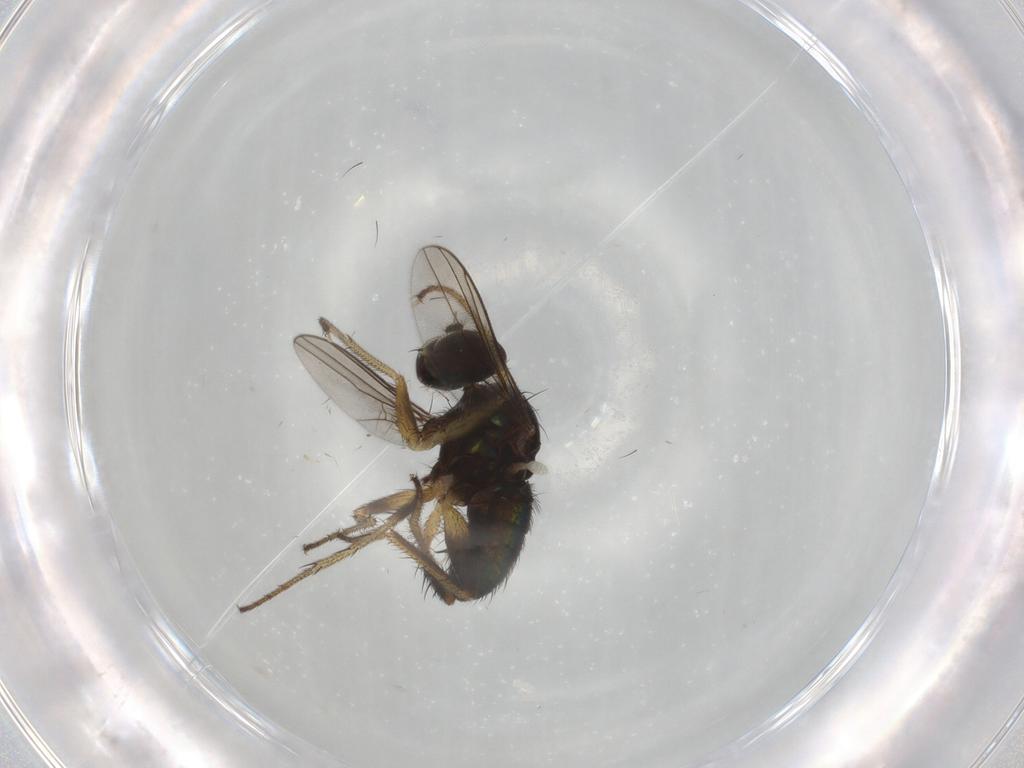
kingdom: Animalia
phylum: Arthropoda
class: Insecta
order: Diptera
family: Dolichopodidae
